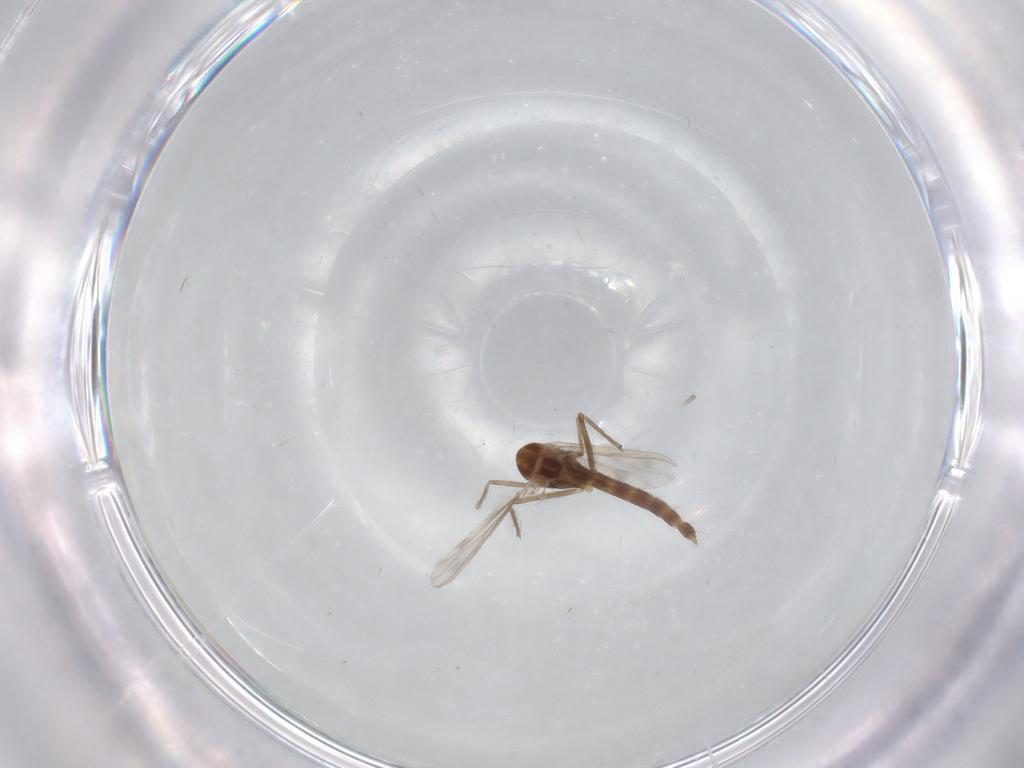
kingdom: Animalia
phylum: Arthropoda
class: Insecta
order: Diptera
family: Chironomidae
